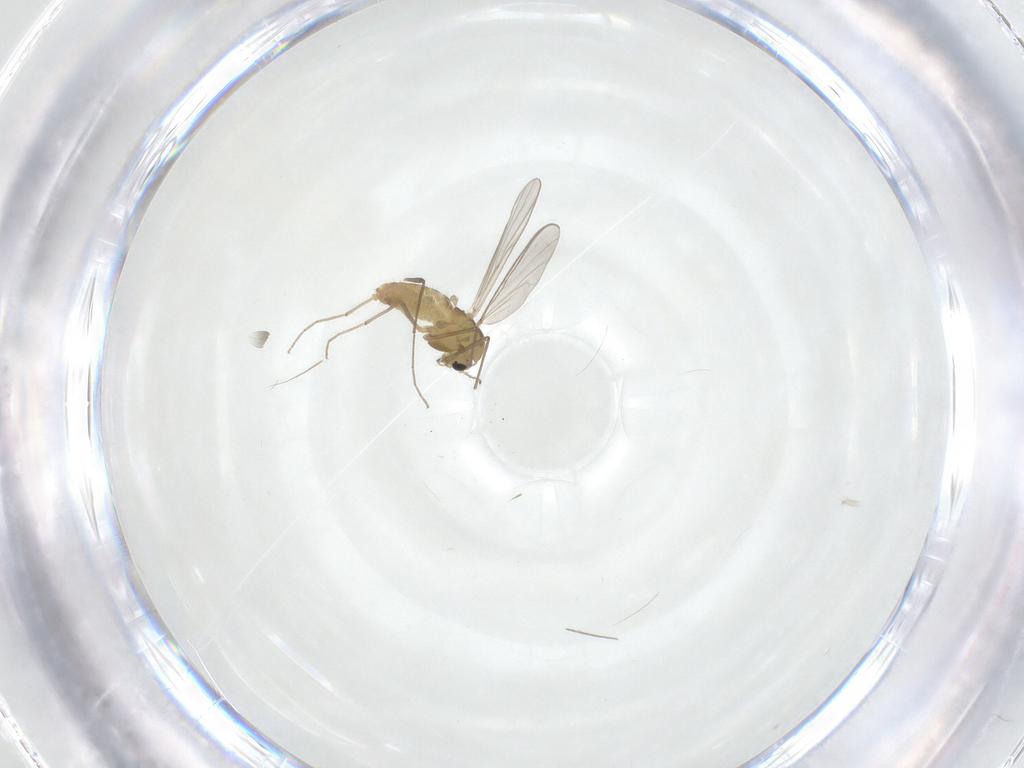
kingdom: Animalia
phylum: Arthropoda
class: Insecta
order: Diptera
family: Chironomidae
